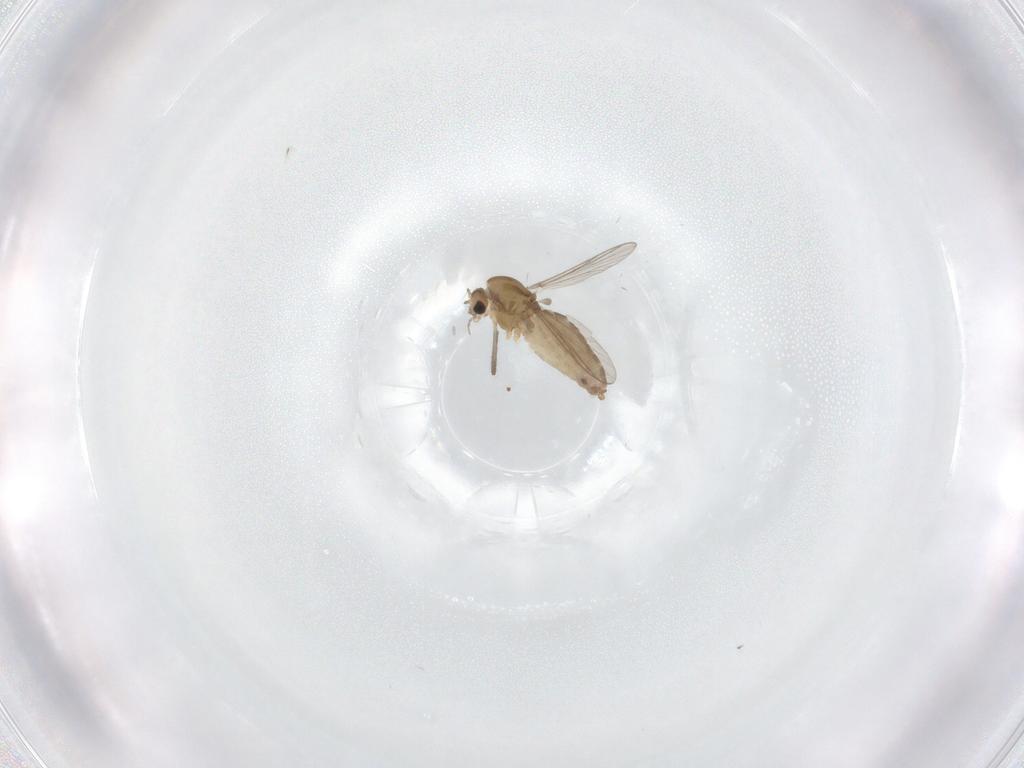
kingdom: Animalia
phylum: Arthropoda
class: Insecta
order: Diptera
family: Chironomidae
